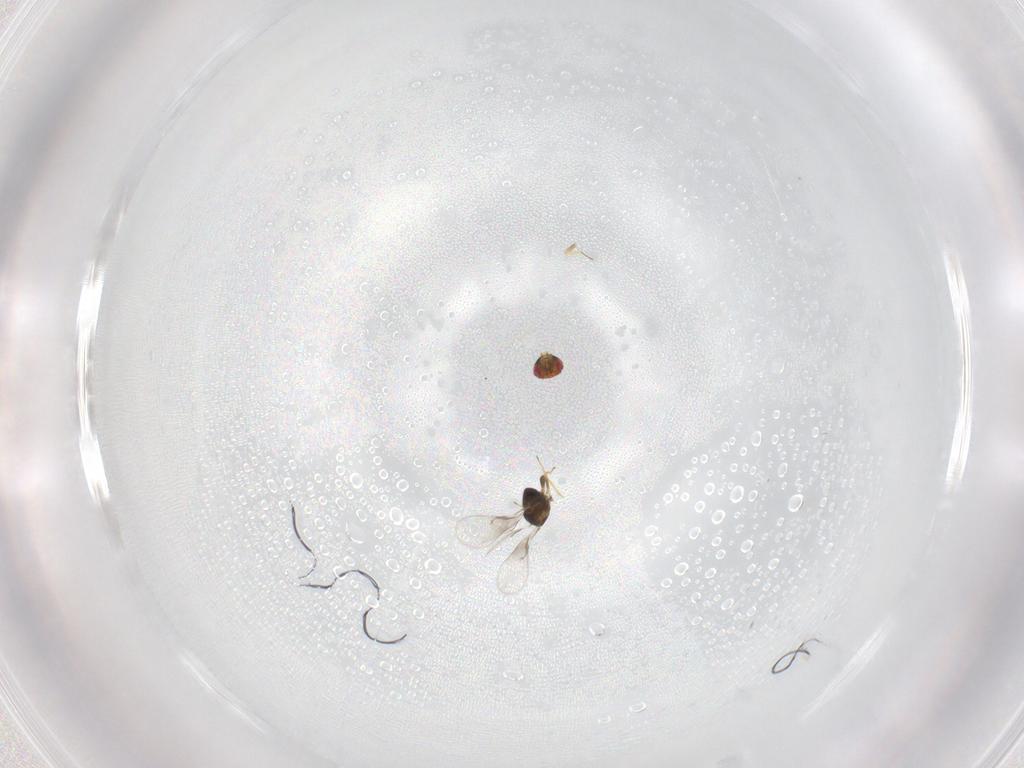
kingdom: Animalia
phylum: Arthropoda
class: Insecta
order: Hymenoptera
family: Trichogrammatidae
